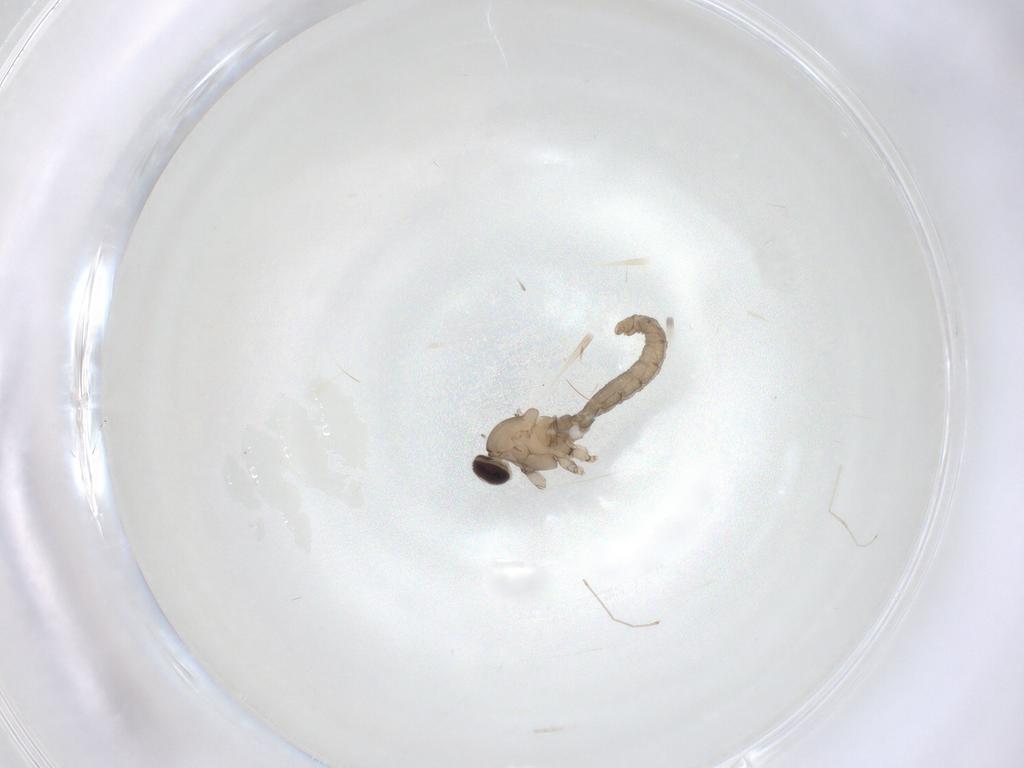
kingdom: Animalia
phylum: Arthropoda
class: Insecta
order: Diptera
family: Cecidomyiidae
